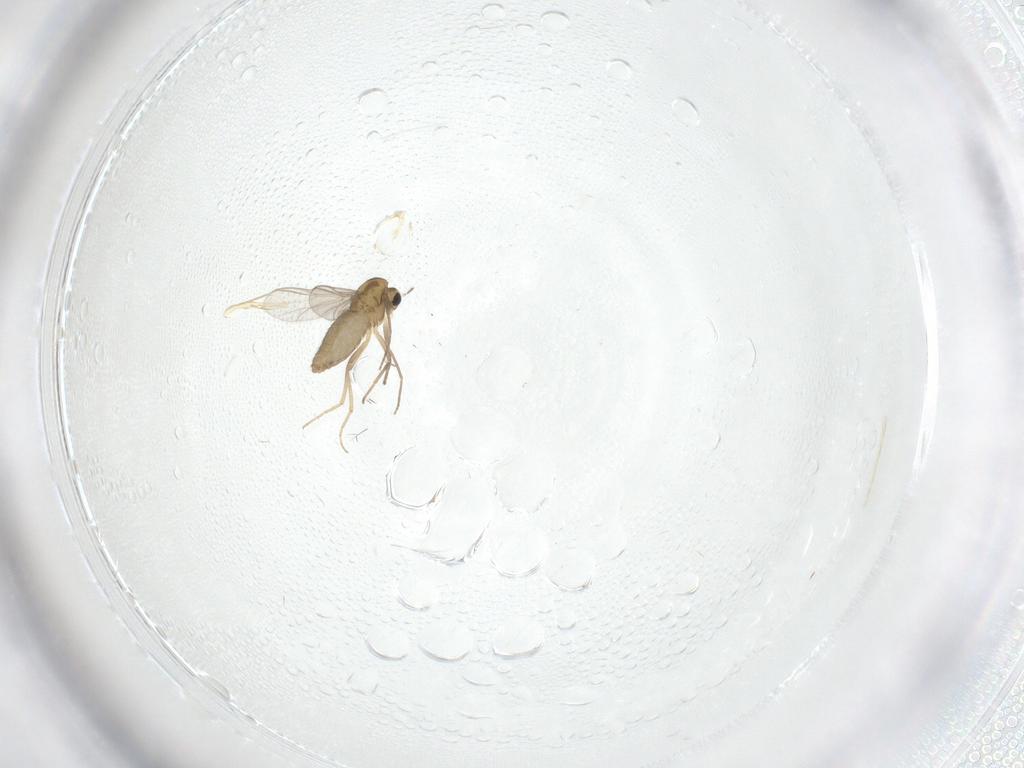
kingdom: Animalia
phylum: Arthropoda
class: Insecta
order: Diptera
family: Chironomidae
